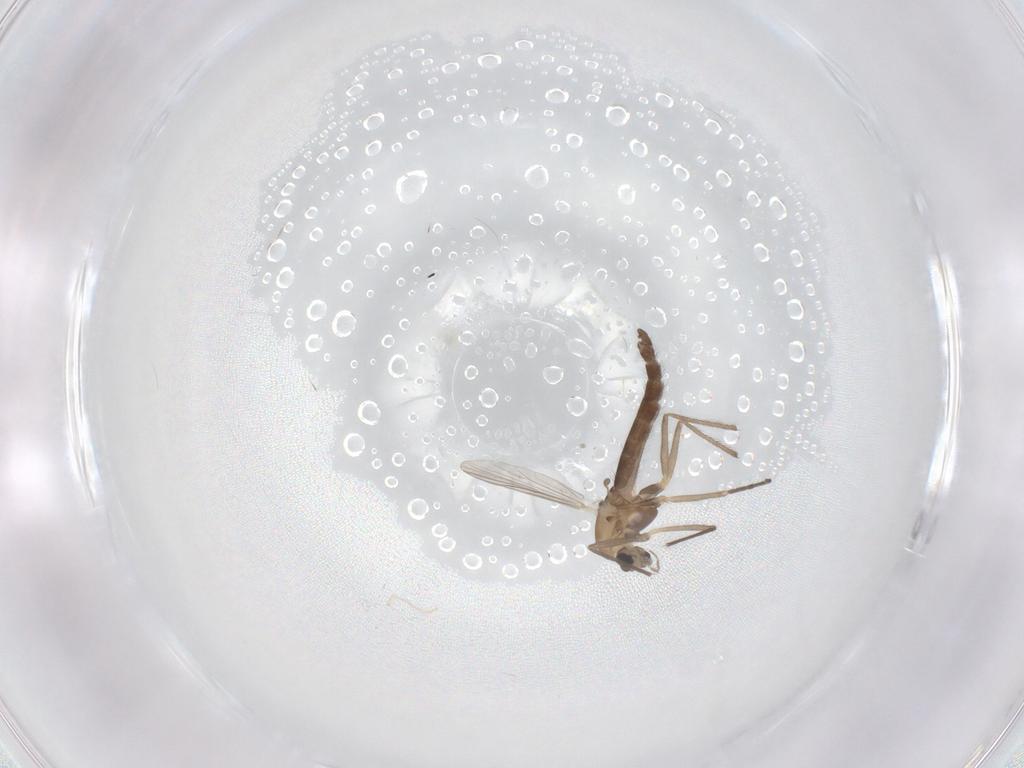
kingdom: Animalia
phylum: Arthropoda
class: Insecta
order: Diptera
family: Chironomidae
